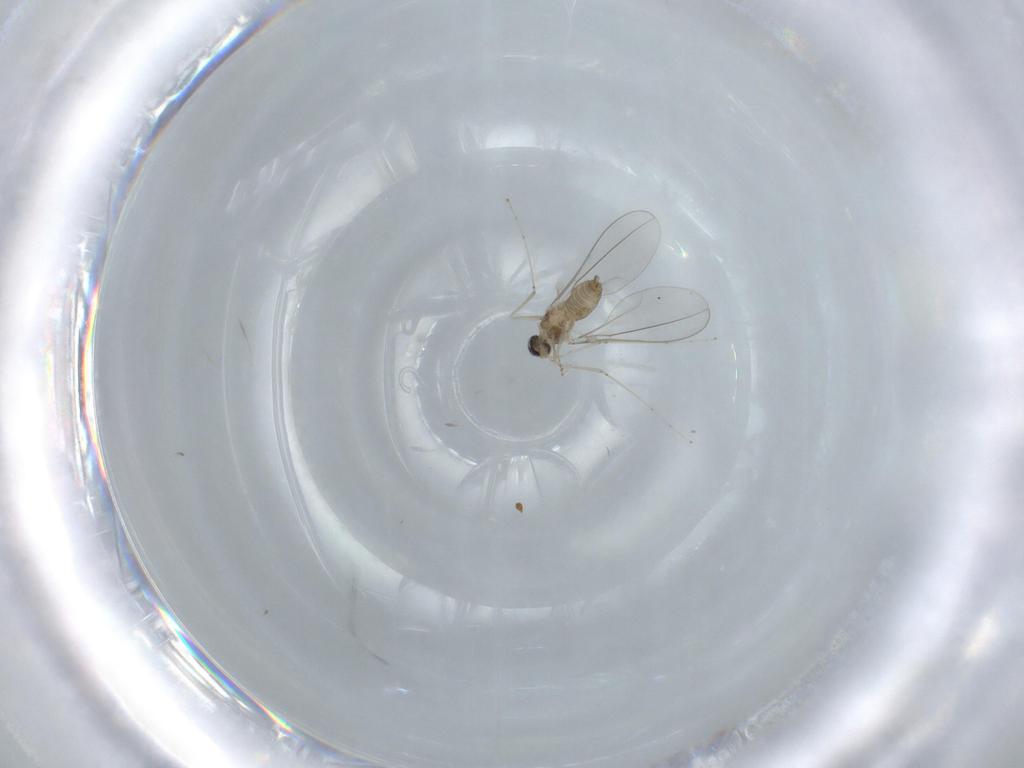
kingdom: Animalia
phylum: Arthropoda
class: Insecta
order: Diptera
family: Cecidomyiidae
